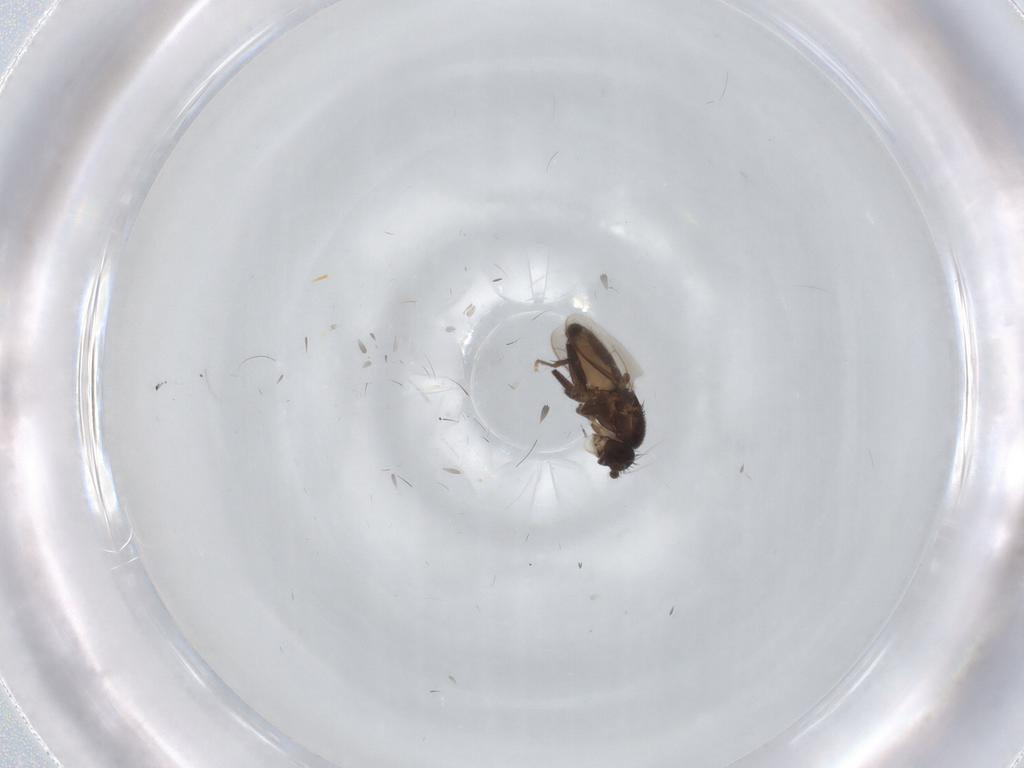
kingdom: Animalia
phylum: Arthropoda
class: Insecta
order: Diptera
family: Sphaeroceridae
